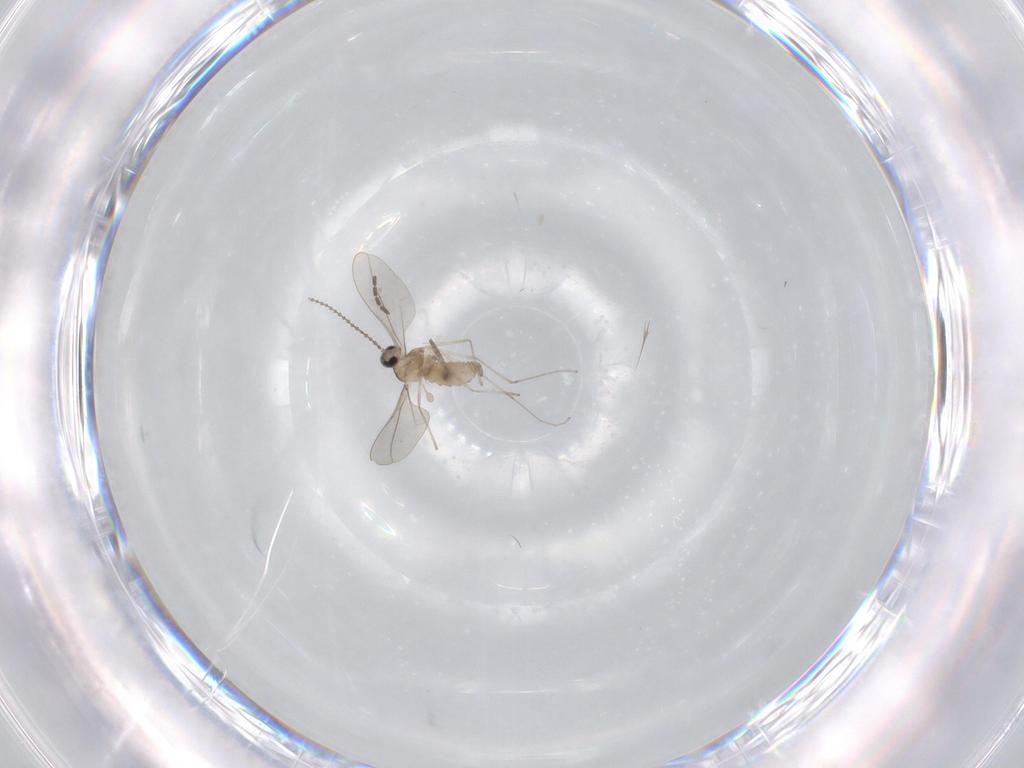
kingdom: Animalia
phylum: Arthropoda
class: Insecta
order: Diptera
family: Cecidomyiidae
